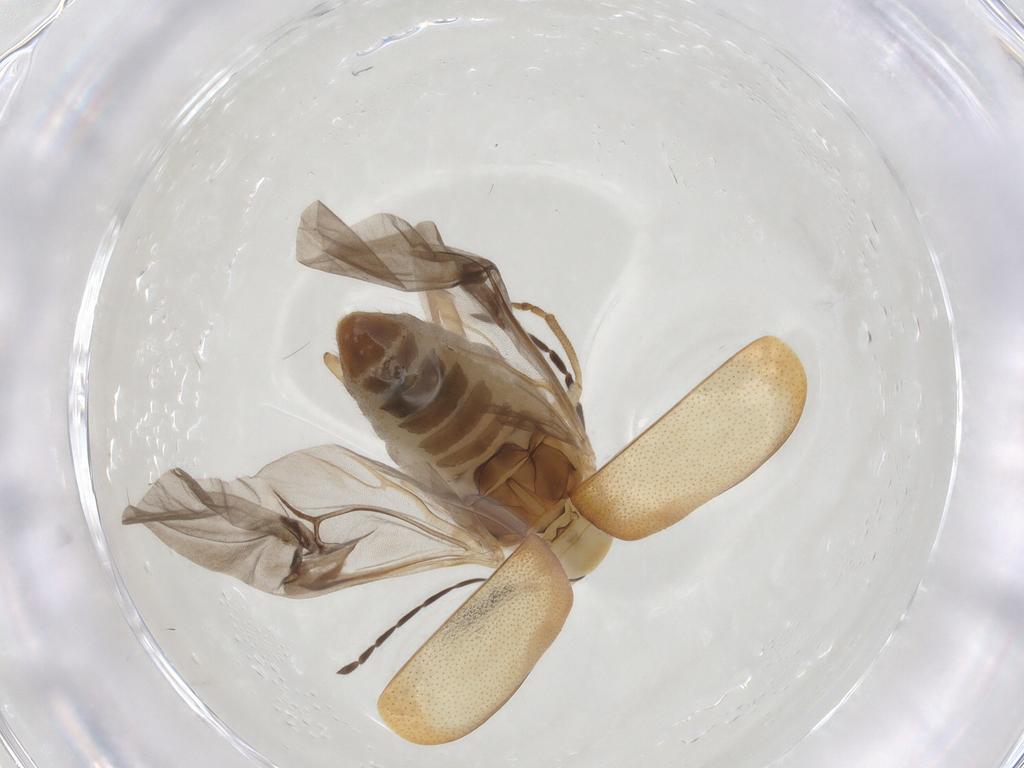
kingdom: Animalia
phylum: Arthropoda
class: Insecta
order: Coleoptera
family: Chrysomelidae
